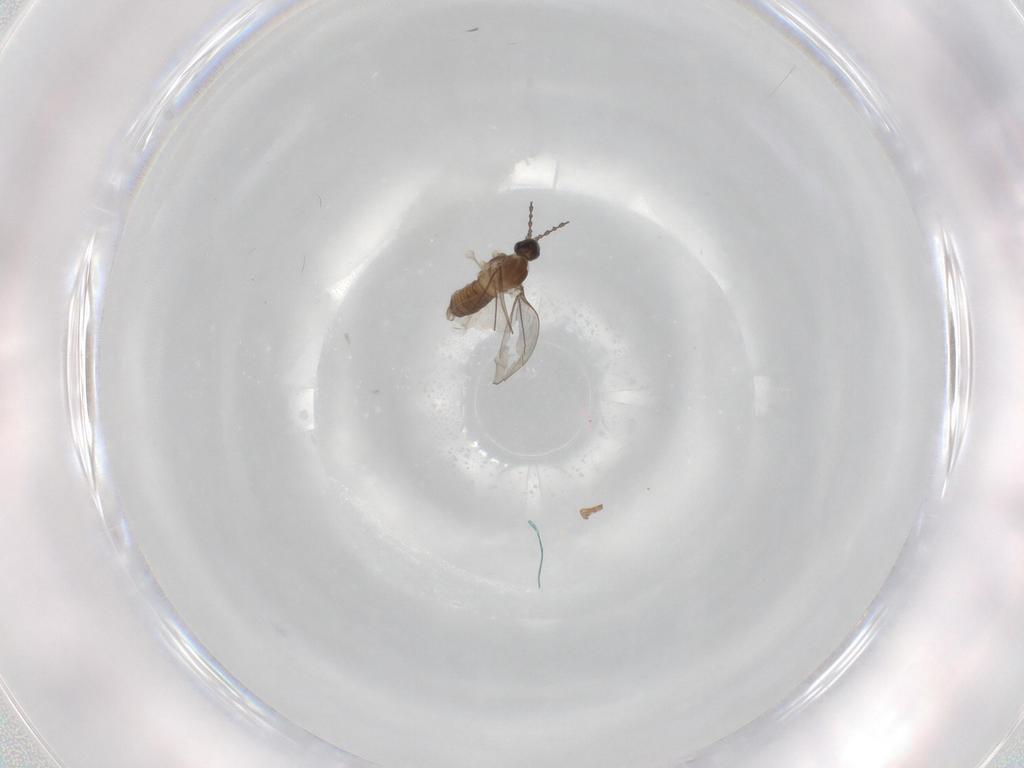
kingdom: Animalia
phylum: Arthropoda
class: Insecta
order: Diptera
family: Cecidomyiidae
